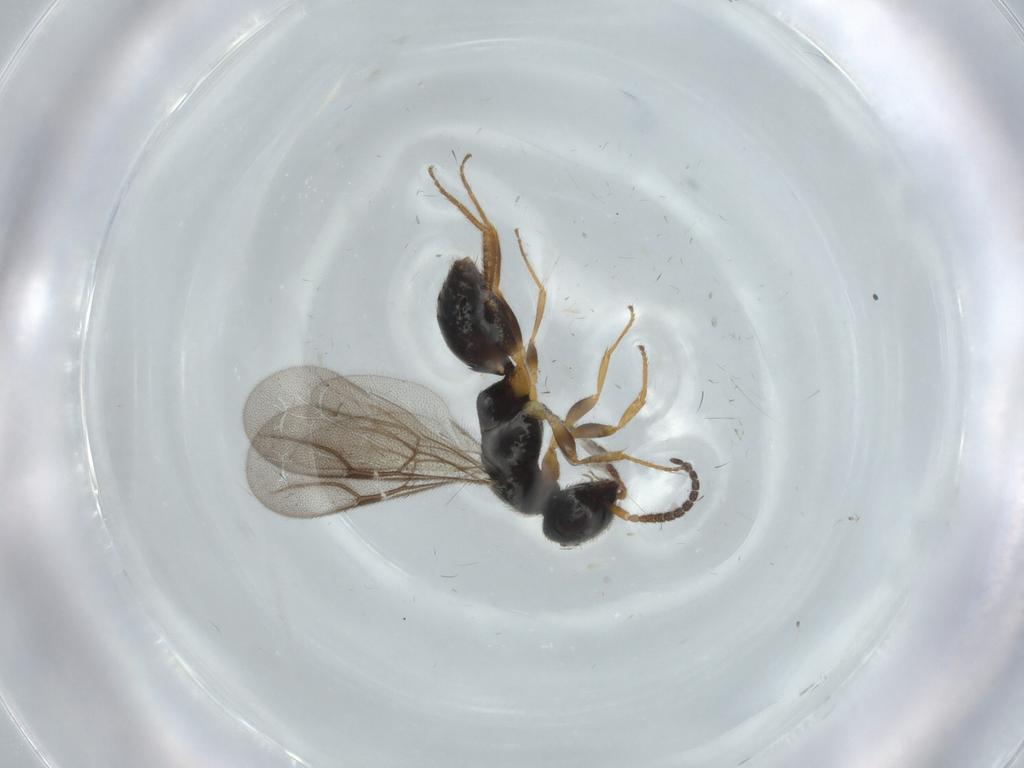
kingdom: Animalia
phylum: Arthropoda
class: Insecta
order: Hymenoptera
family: Bethylidae
